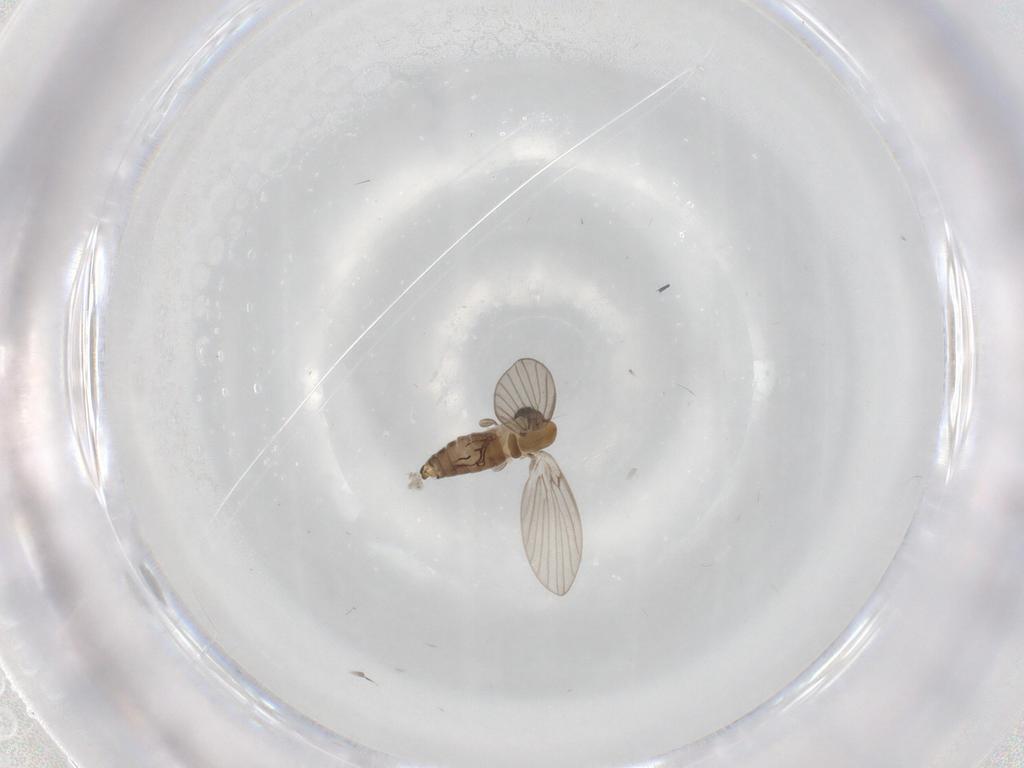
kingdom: Animalia
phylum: Arthropoda
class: Insecta
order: Diptera
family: Psychodidae
